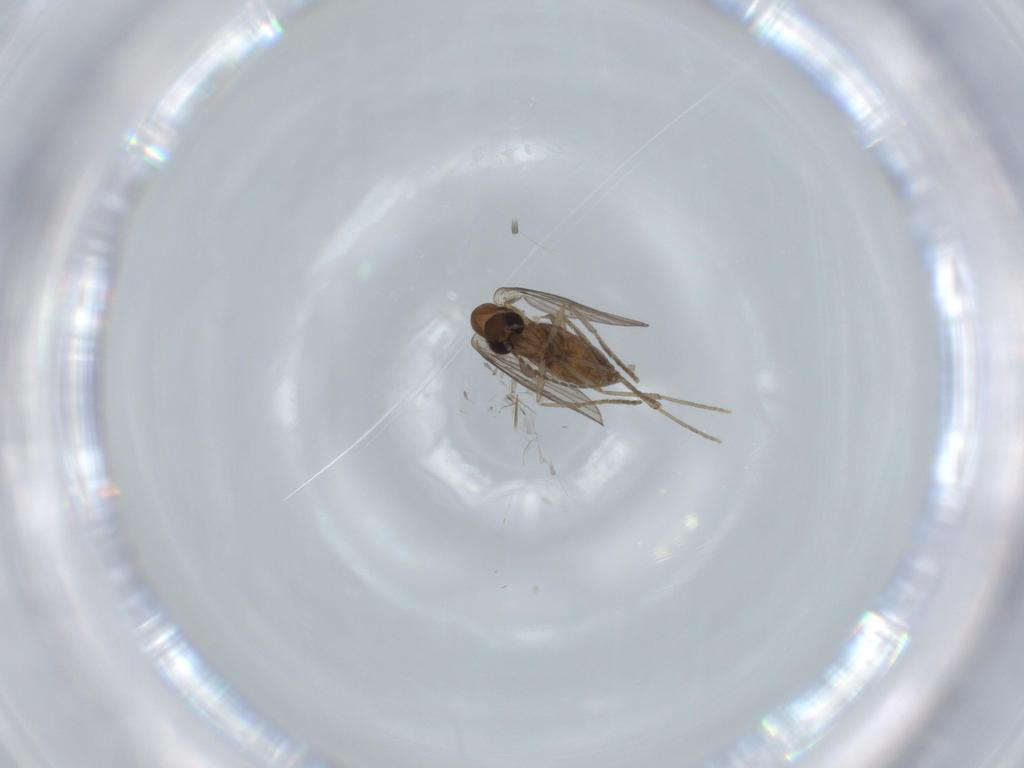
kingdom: Animalia
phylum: Arthropoda
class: Insecta
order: Diptera
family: Psychodidae
